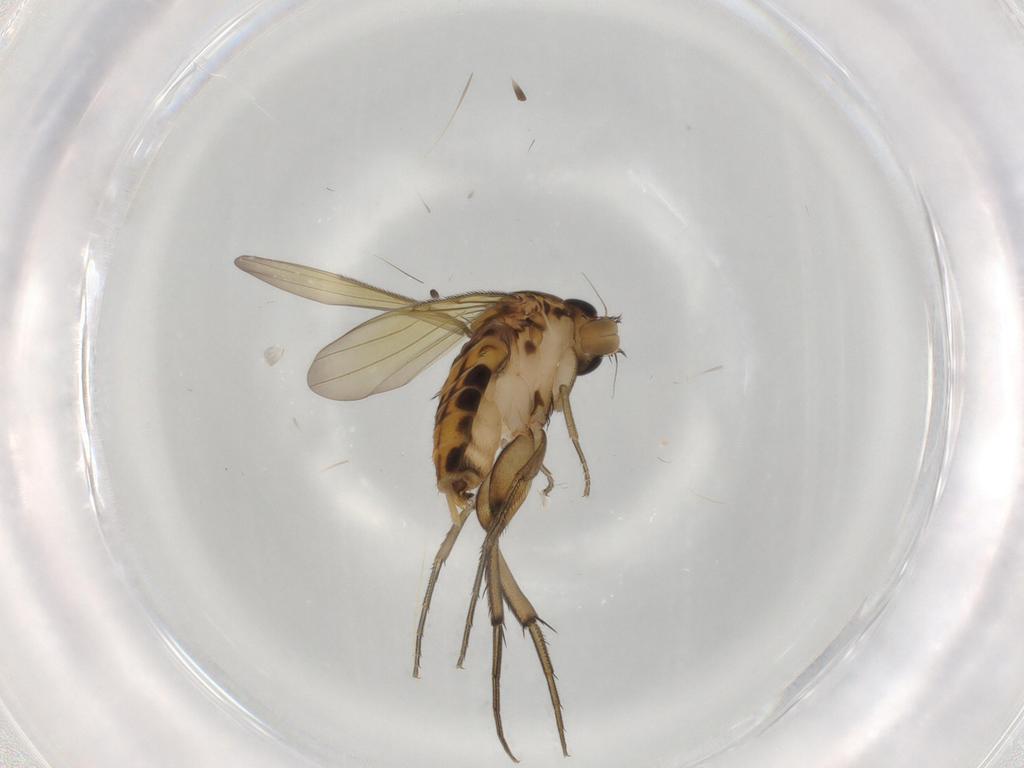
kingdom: Animalia
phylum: Arthropoda
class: Insecta
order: Diptera
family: Phoridae
